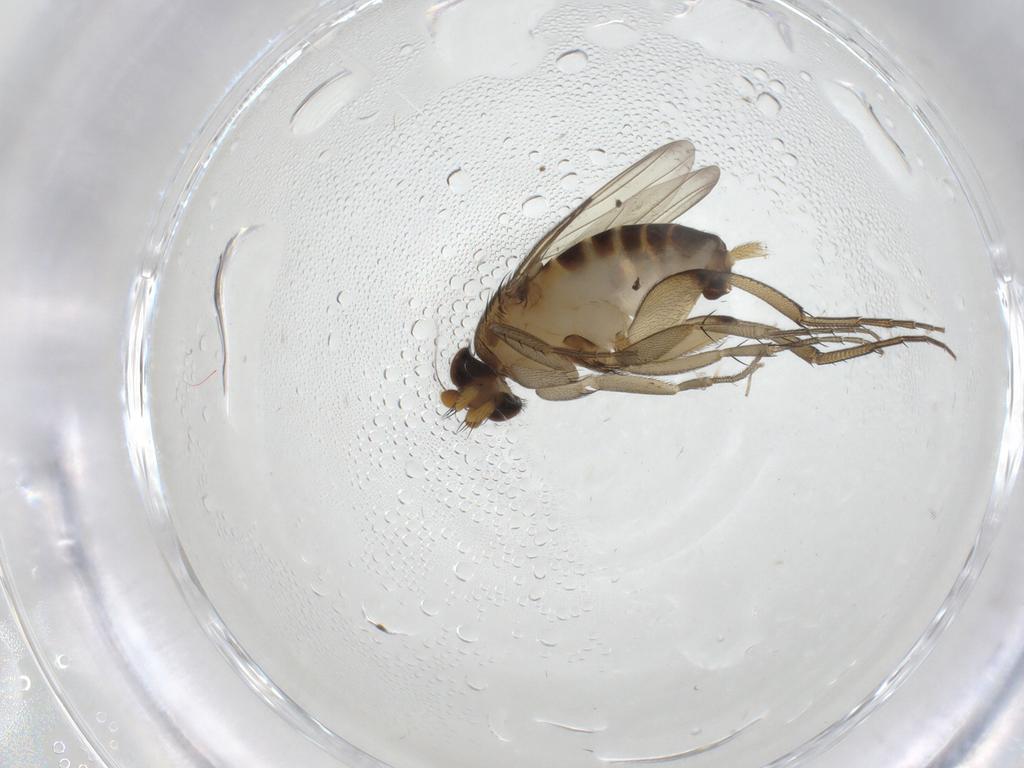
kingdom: Animalia
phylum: Arthropoda
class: Insecta
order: Diptera
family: Phoridae
